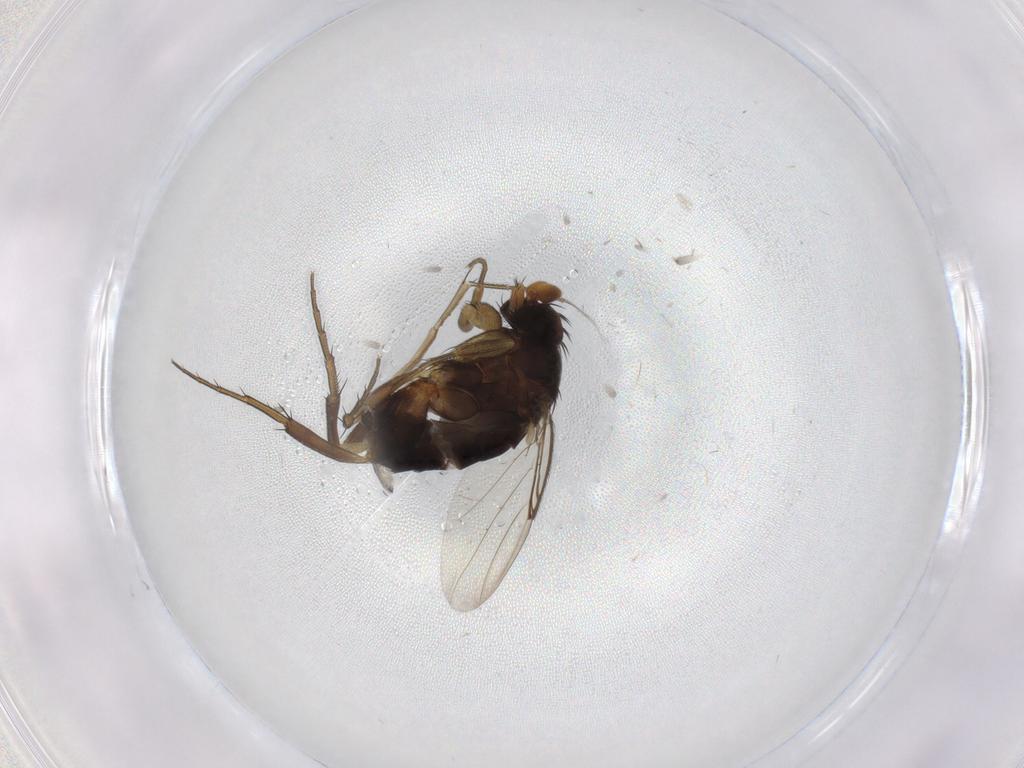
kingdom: Animalia
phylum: Arthropoda
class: Insecta
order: Diptera
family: Phoridae
